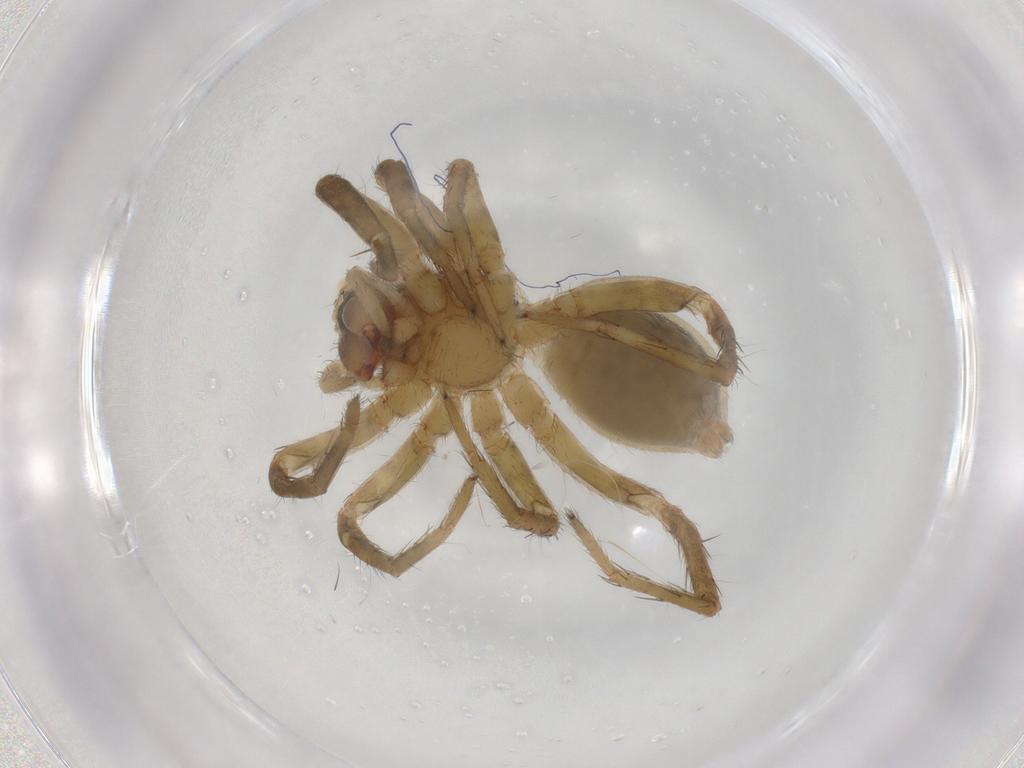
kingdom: Animalia
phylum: Arthropoda
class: Arachnida
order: Araneae
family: Lycosidae
